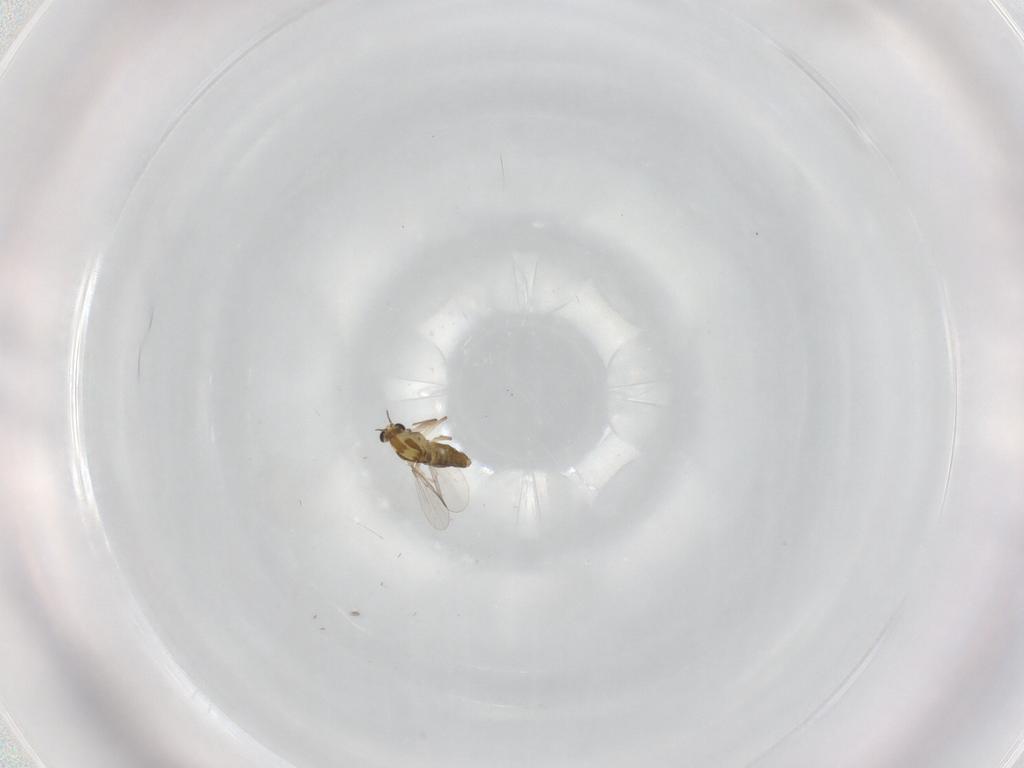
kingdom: Animalia
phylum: Arthropoda
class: Insecta
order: Diptera
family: Chironomidae
